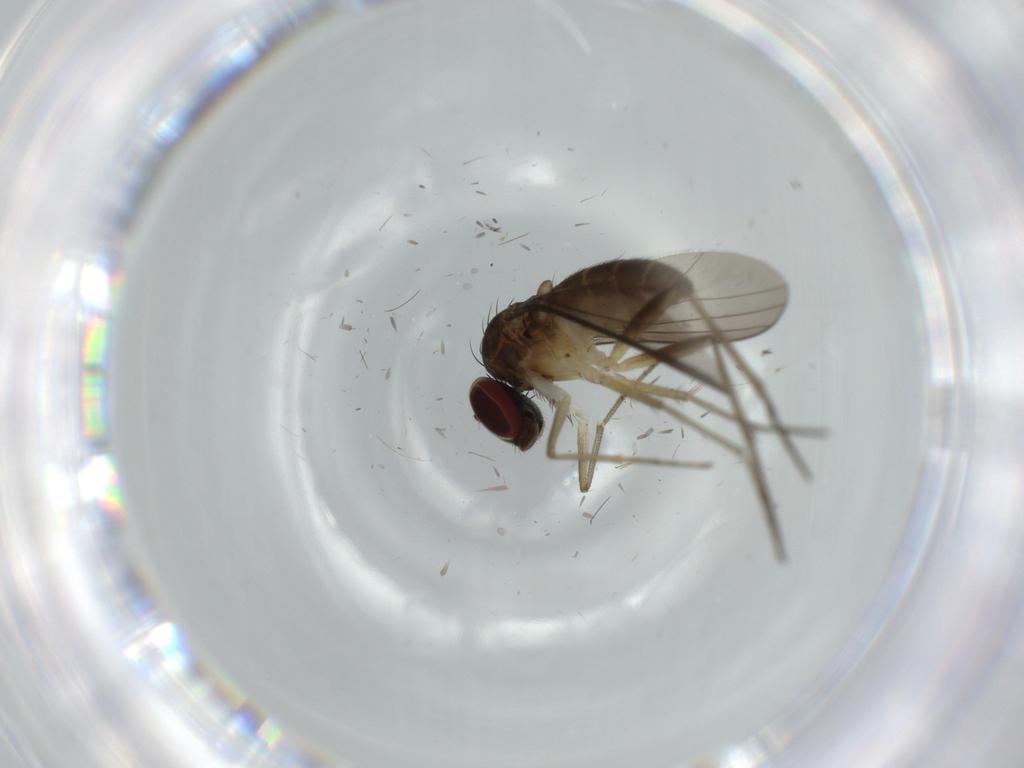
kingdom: Animalia
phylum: Arthropoda
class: Insecta
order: Diptera
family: Dolichopodidae
